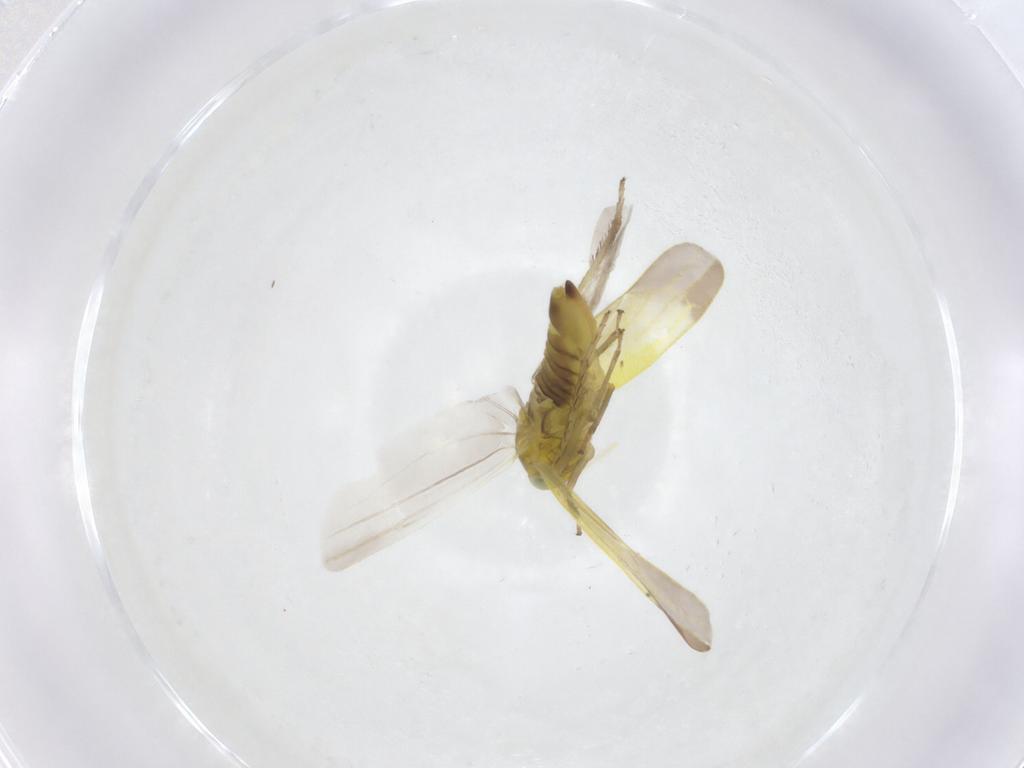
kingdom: Animalia
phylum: Arthropoda
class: Insecta
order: Hemiptera
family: Cicadellidae
